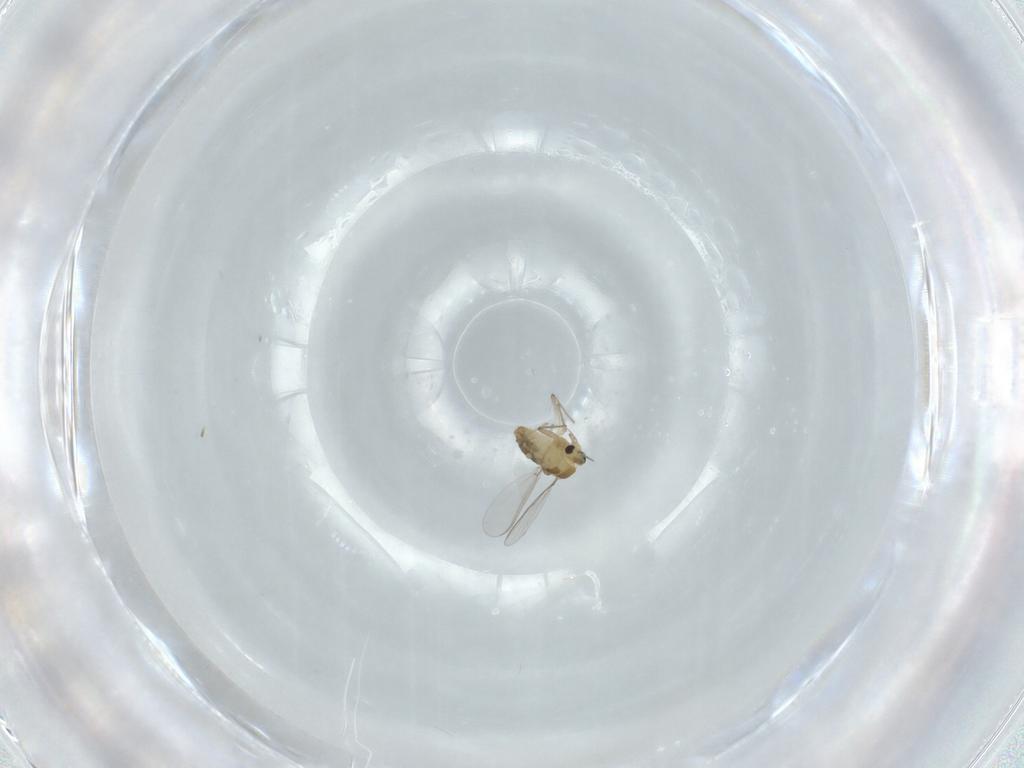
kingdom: Animalia
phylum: Arthropoda
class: Insecta
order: Diptera
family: Chironomidae
